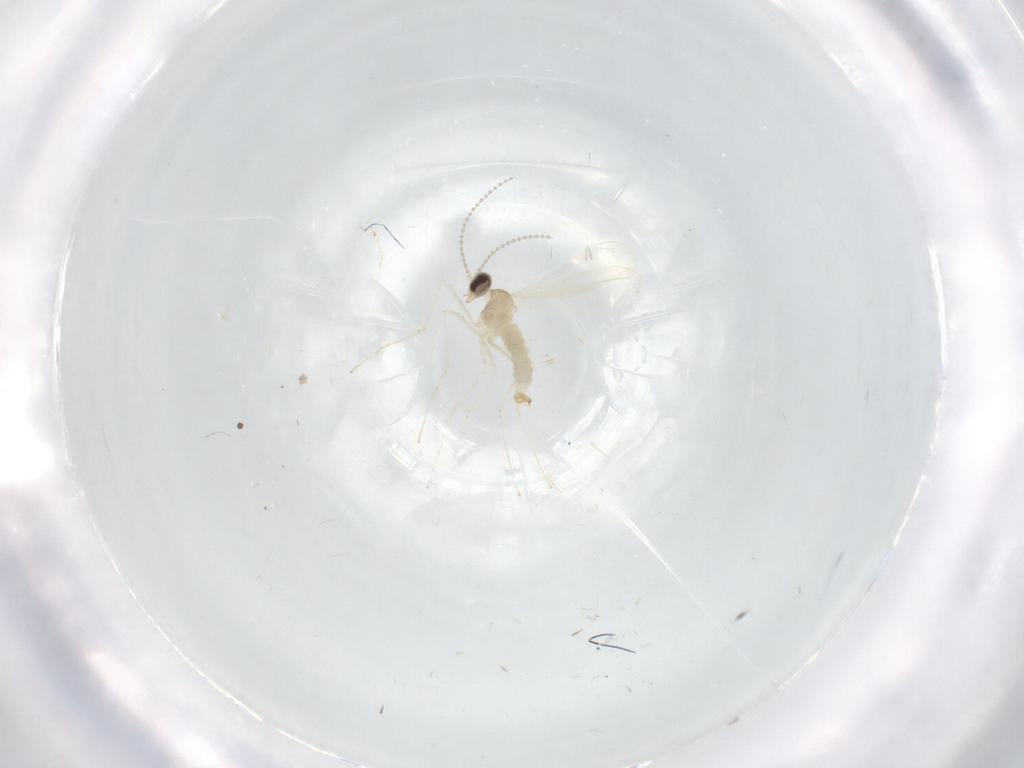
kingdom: Animalia
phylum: Arthropoda
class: Insecta
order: Diptera
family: Cecidomyiidae
